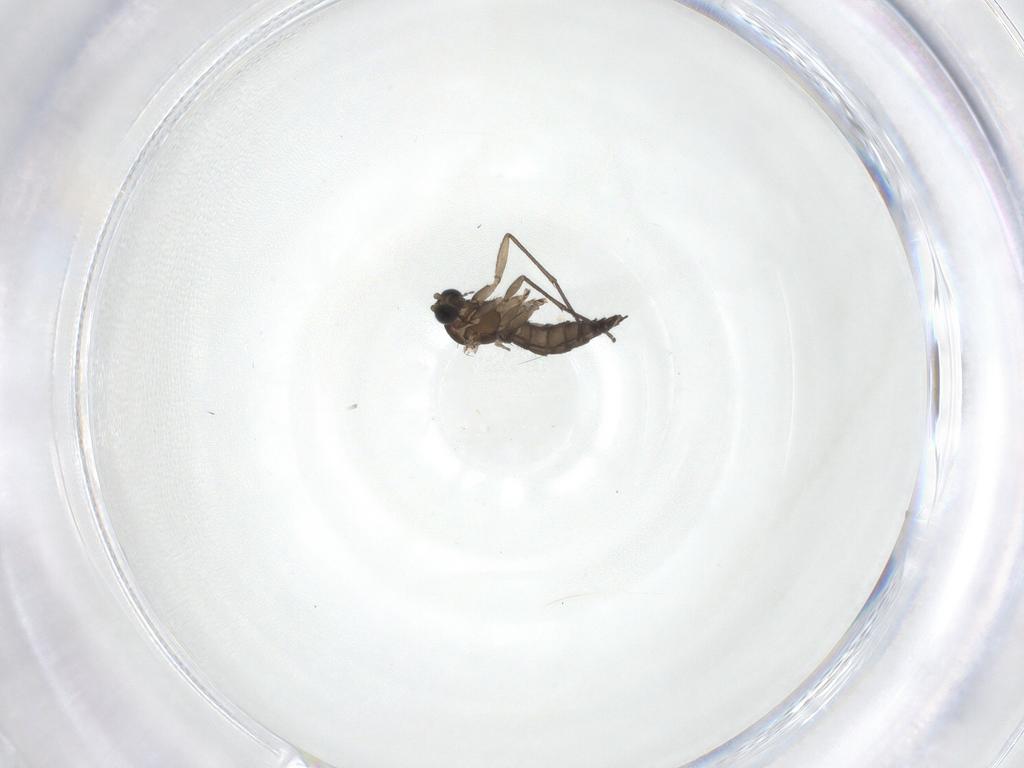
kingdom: Animalia
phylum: Arthropoda
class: Insecta
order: Diptera
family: Sciaridae
